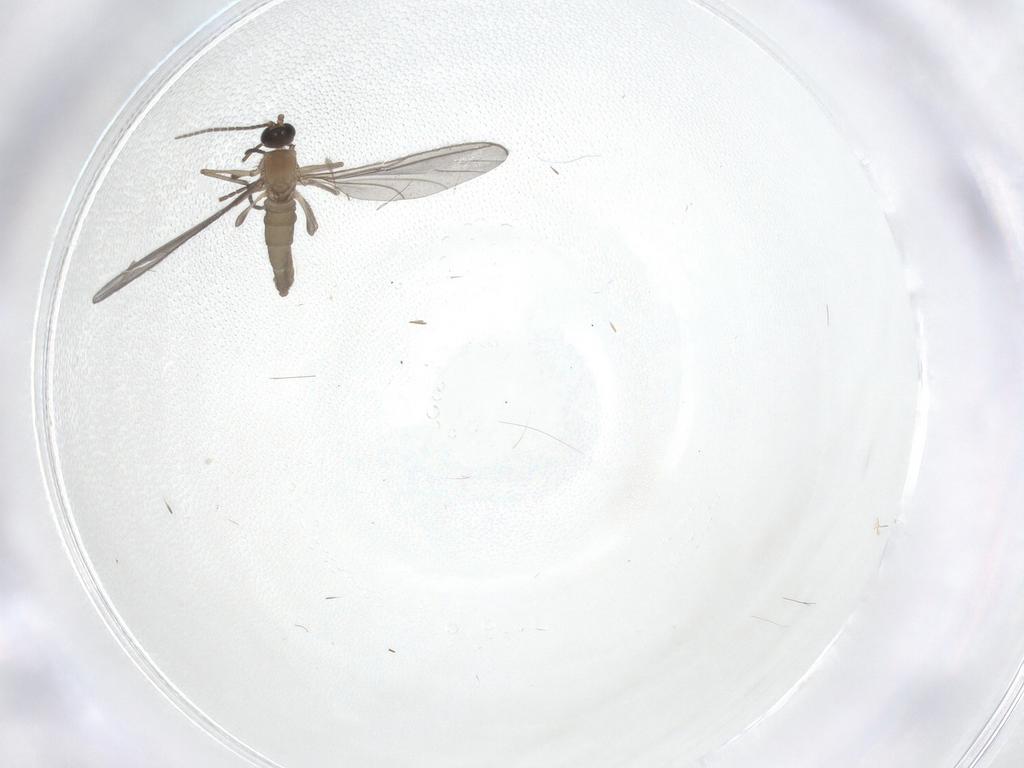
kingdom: Animalia
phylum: Arthropoda
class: Insecta
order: Diptera
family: Sciaridae
